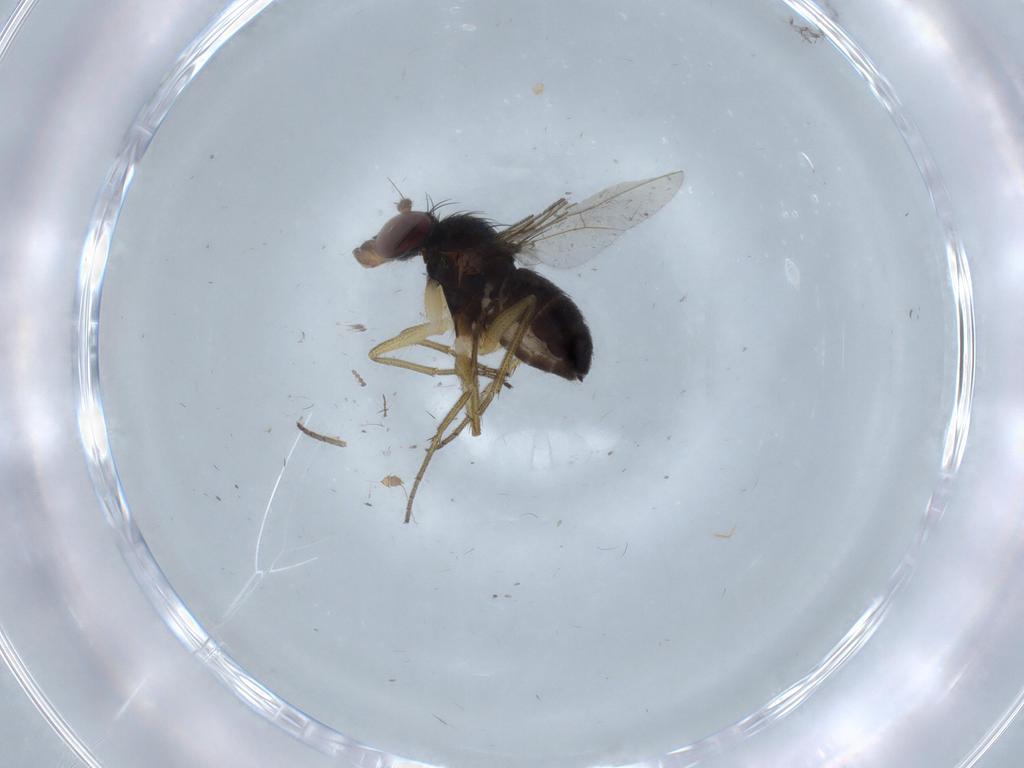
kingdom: Animalia
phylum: Arthropoda
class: Insecta
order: Diptera
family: Dolichopodidae
